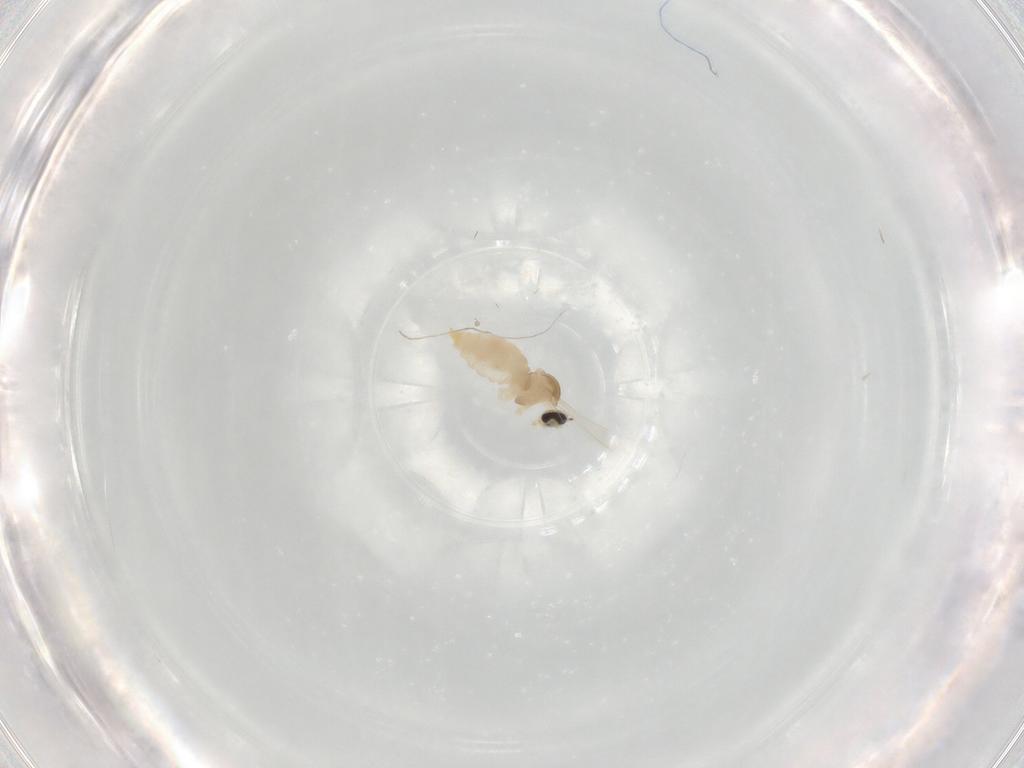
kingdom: Animalia
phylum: Arthropoda
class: Insecta
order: Diptera
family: Cecidomyiidae
